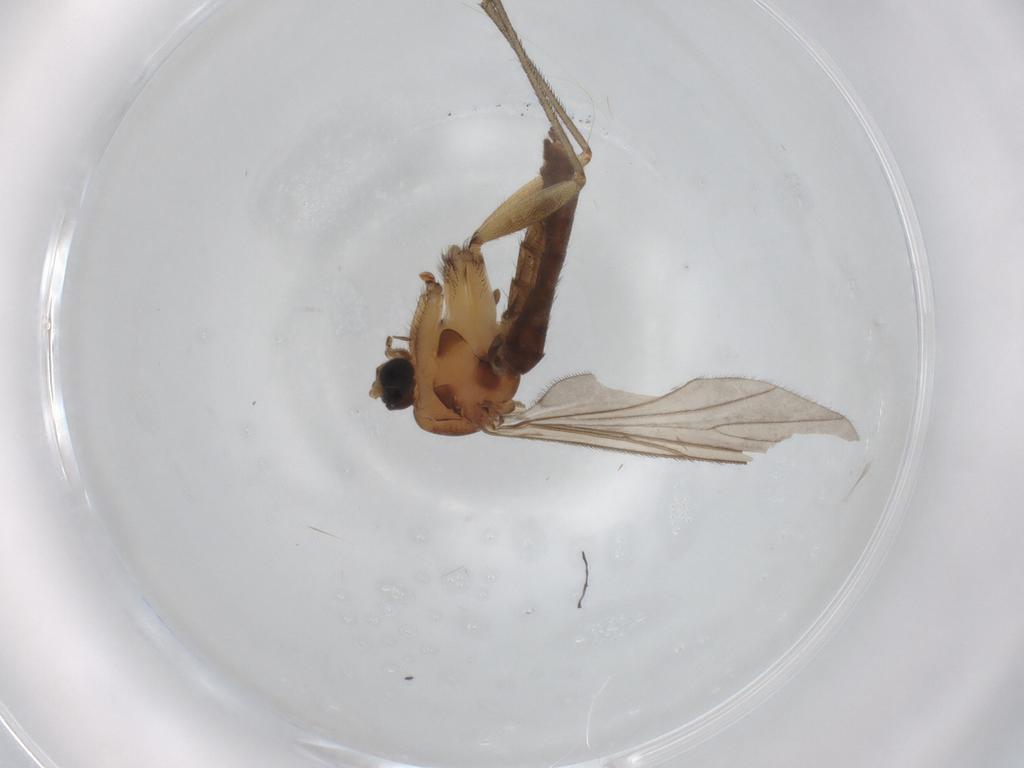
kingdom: Animalia
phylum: Arthropoda
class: Insecta
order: Diptera
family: Sciaridae
